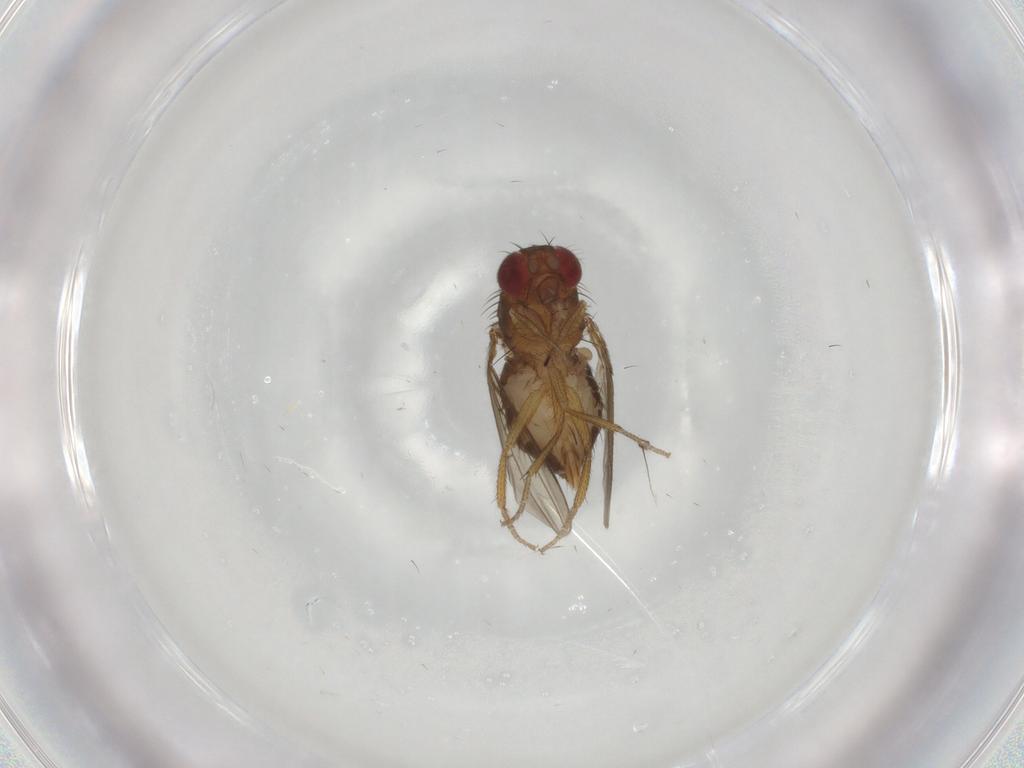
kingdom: Animalia
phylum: Arthropoda
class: Insecta
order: Diptera
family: Drosophilidae
